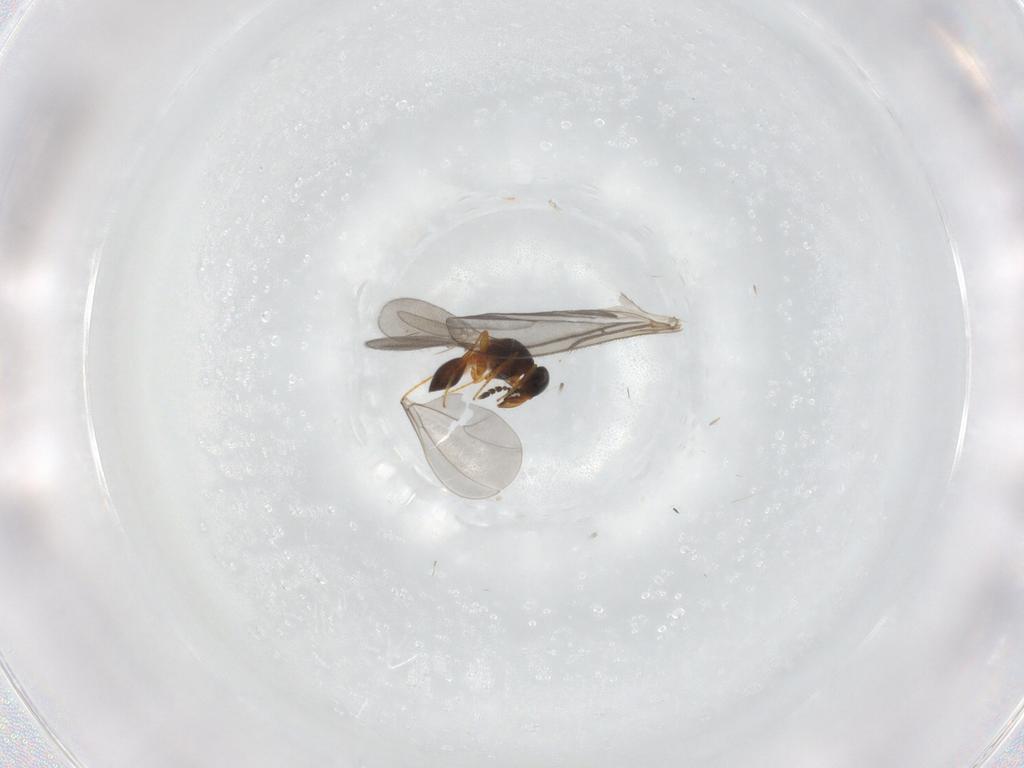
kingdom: Animalia
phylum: Arthropoda
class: Insecta
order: Hymenoptera
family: Platygastridae
